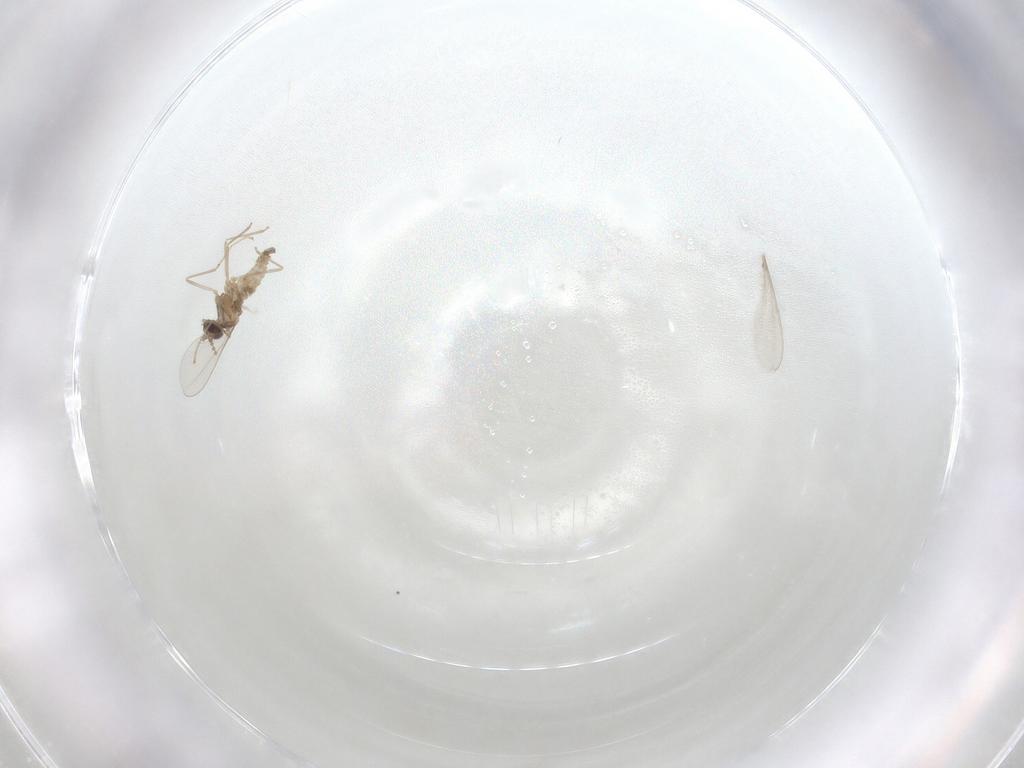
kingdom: Animalia
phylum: Arthropoda
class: Insecta
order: Diptera
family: Cecidomyiidae
